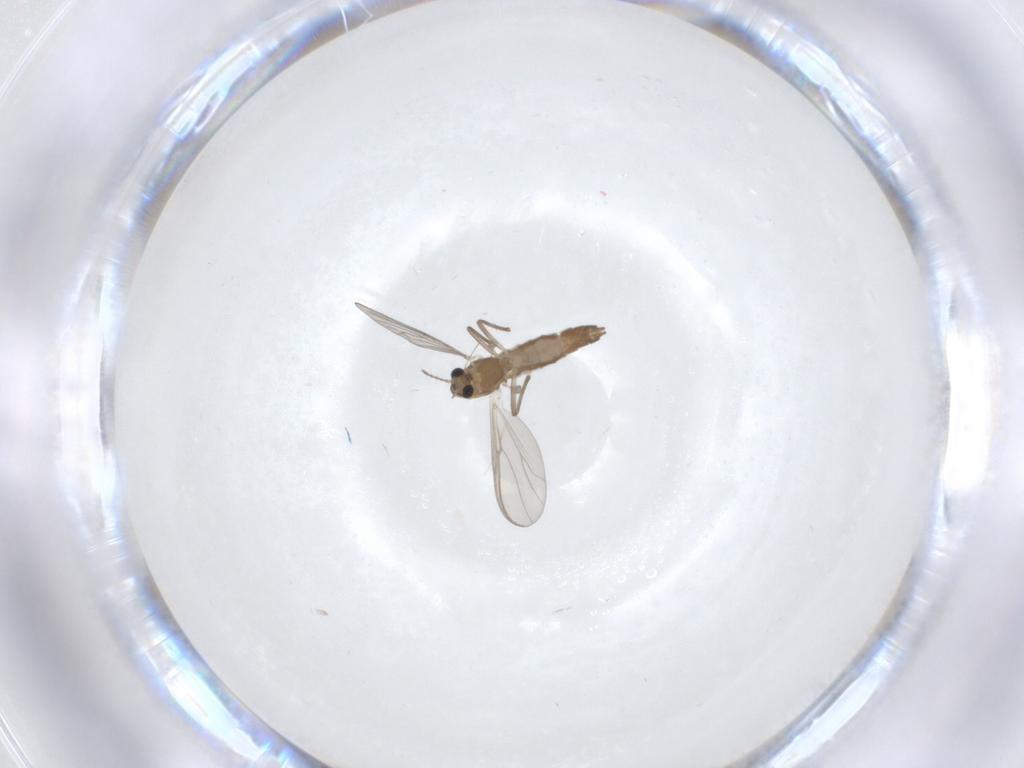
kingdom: Animalia
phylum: Arthropoda
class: Insecta
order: Diptera
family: Chironomidae
